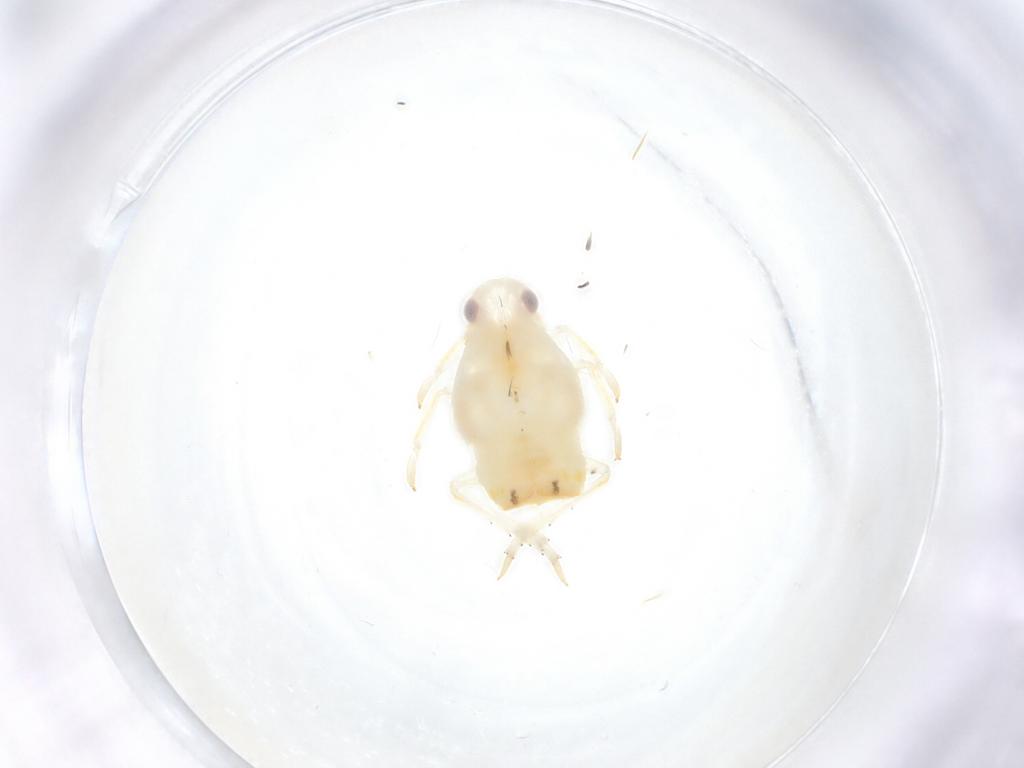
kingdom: Animalia
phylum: Arthropoda
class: Insecta
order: Hemiptera
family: Flatidae
